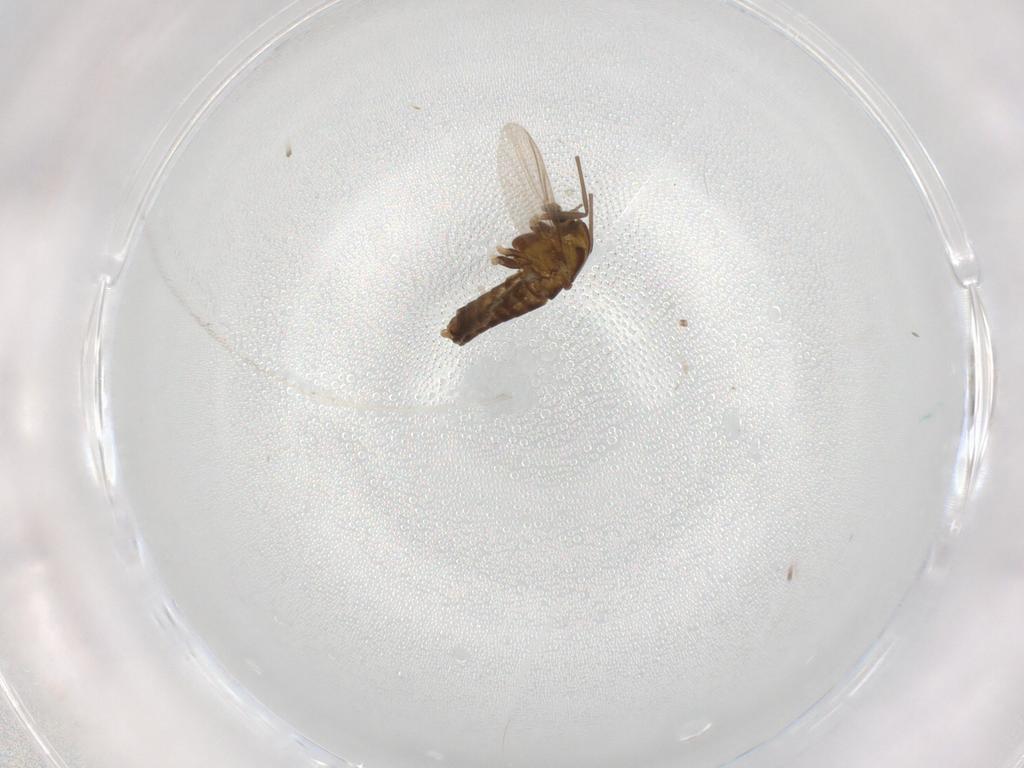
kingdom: Animalia
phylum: Arthropoda
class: Insecta
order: Diptera
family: Chironomidae
